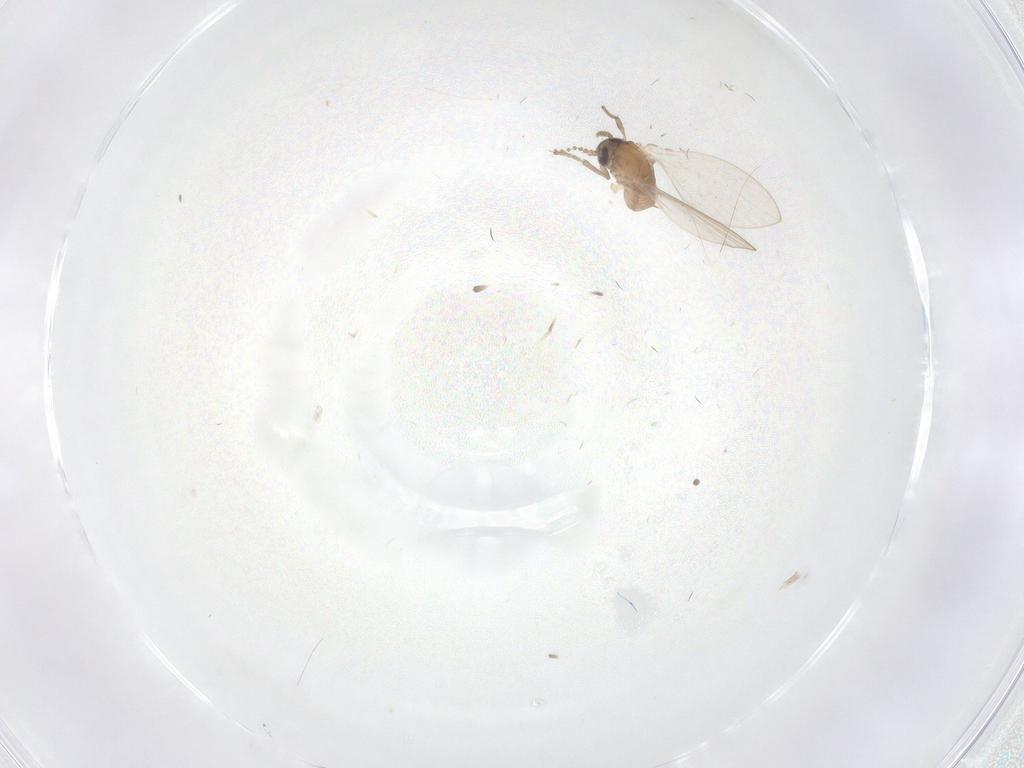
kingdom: Animalia
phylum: Arthropoda
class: Insecta
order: Diptera
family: Psychodidae
